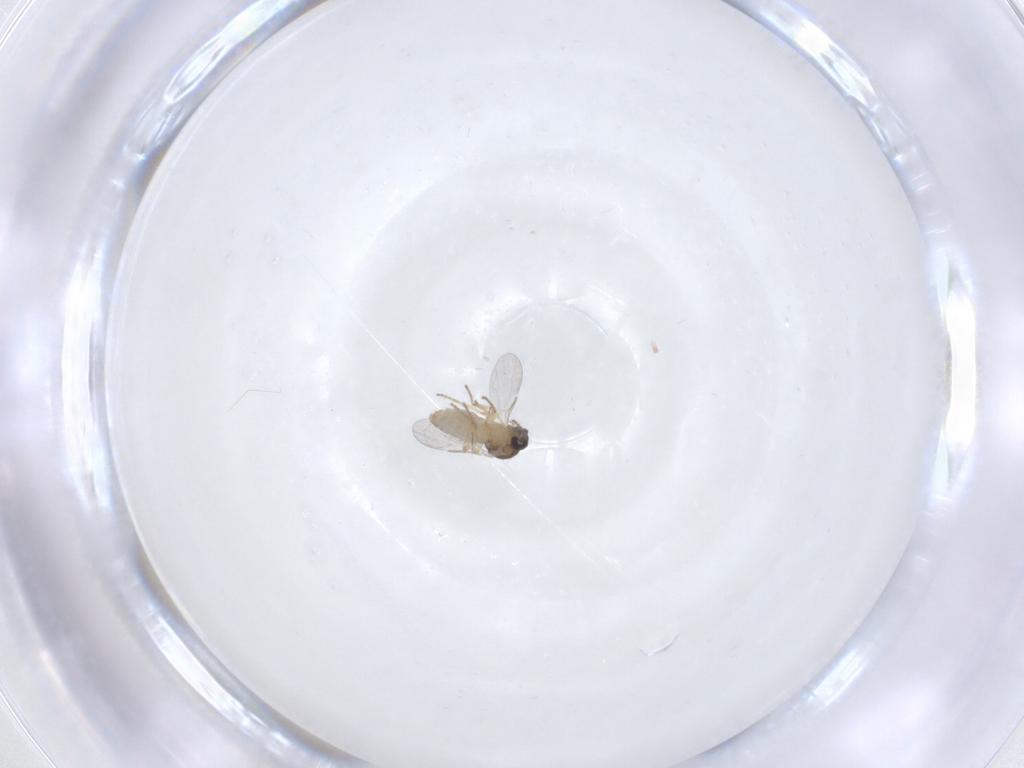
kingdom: Animalia
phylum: Arthropoda
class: Insecta
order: Diptera
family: Ceratopogonidae
